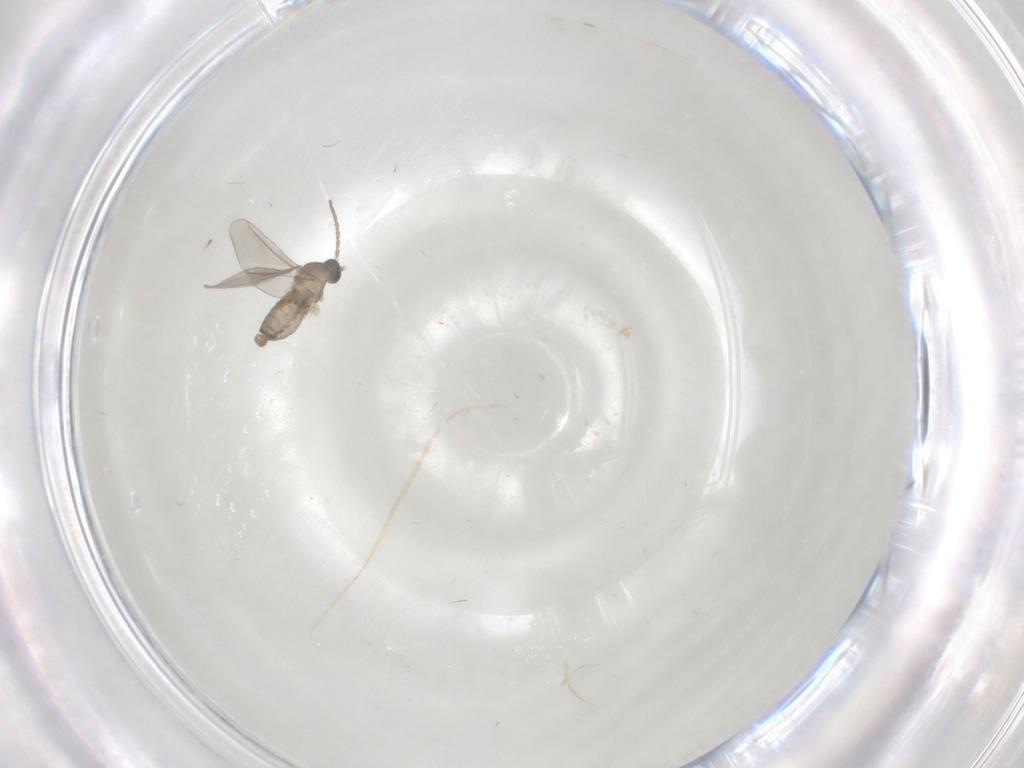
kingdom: Animalia
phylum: Arthropoda
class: Insecta
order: Diptera
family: Cecidomyiidae
